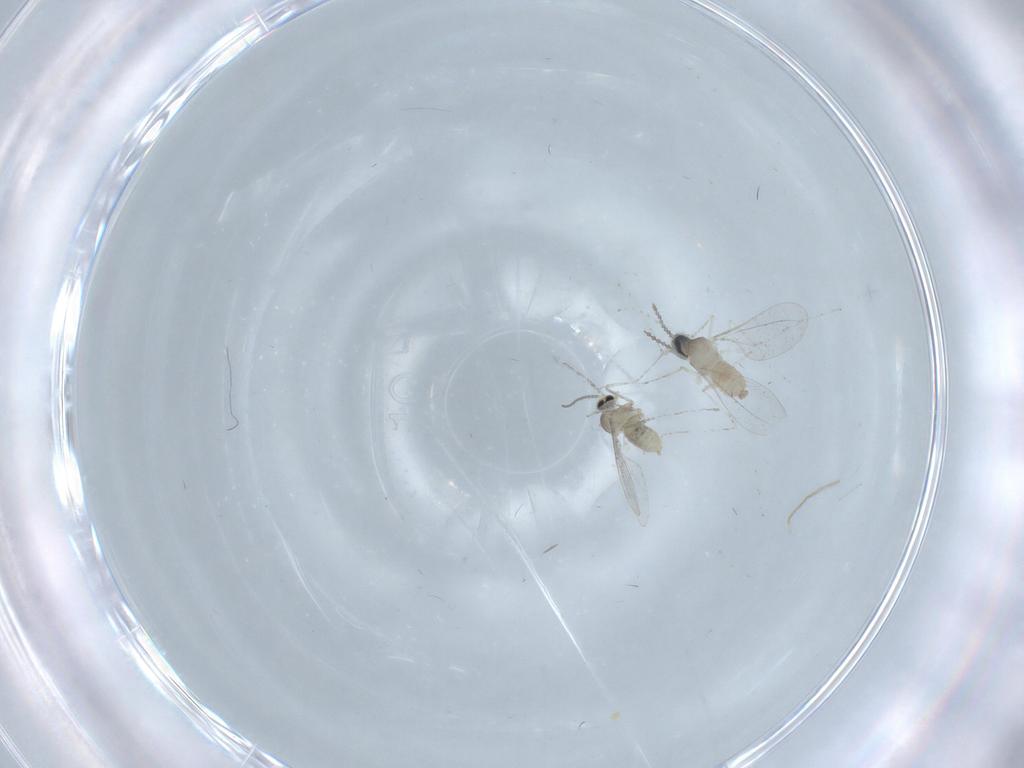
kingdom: Animalia
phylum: Arthropoda
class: Insecta
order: Diptera
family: Cecidomyiidae
